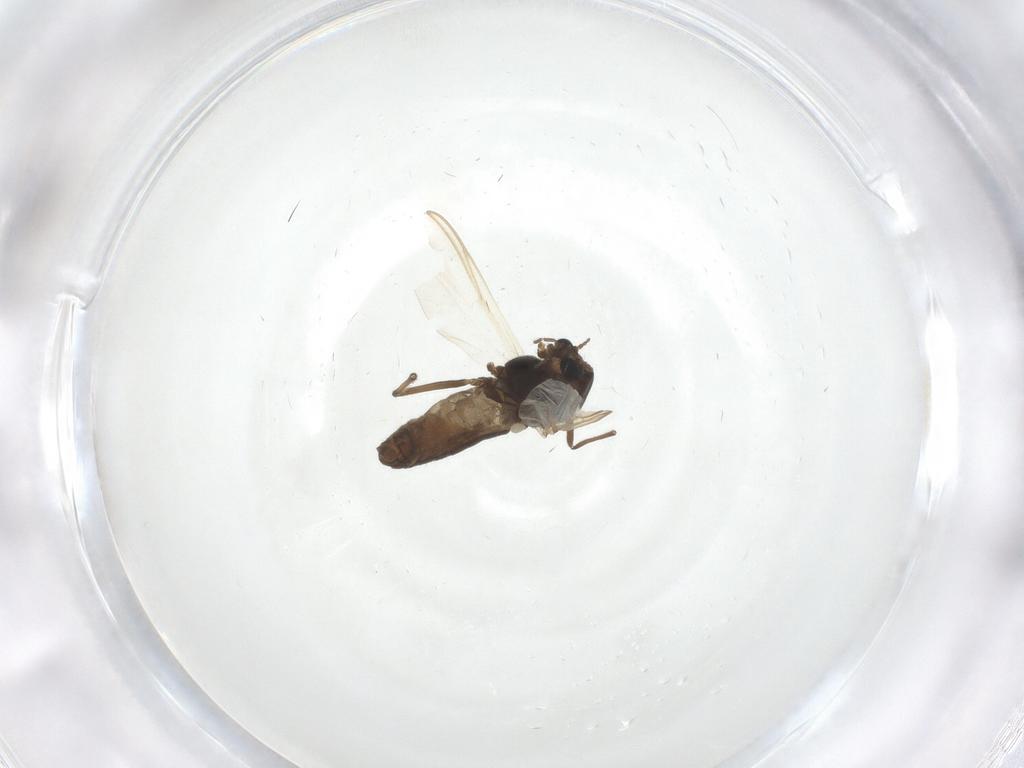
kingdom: Animalia
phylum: Arthropoda
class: Insecta
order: Diptera
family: Chironomidae
